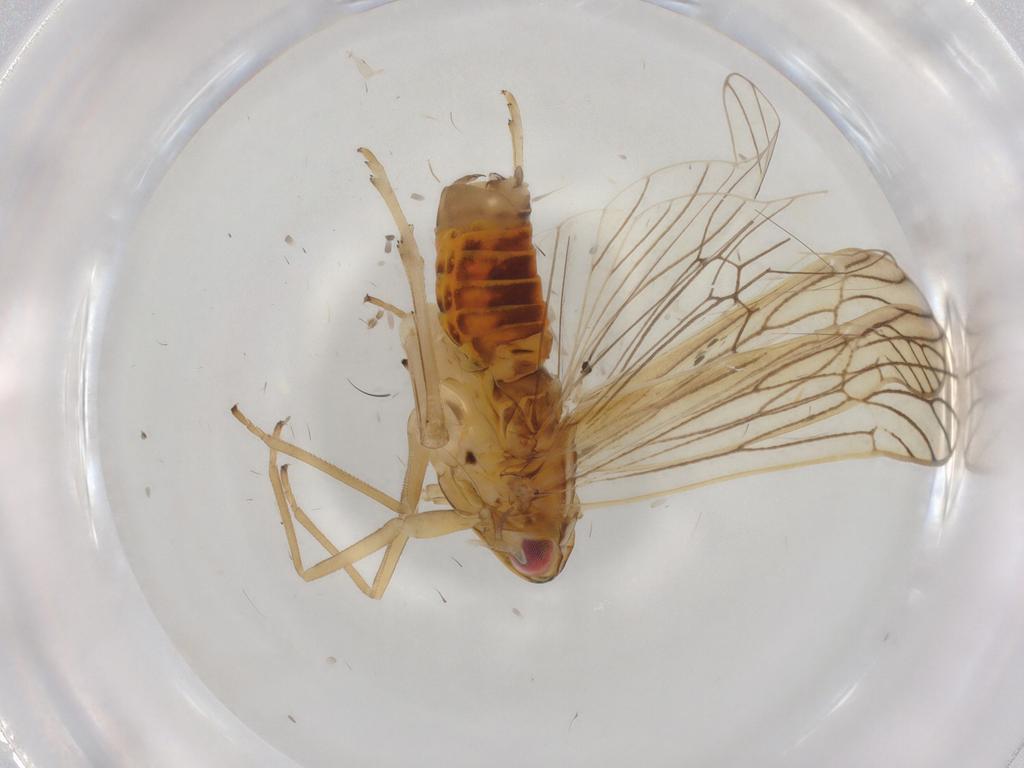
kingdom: Animalia
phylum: Arthropoda
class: Insecta
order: Hemiptera
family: Delphacidae
